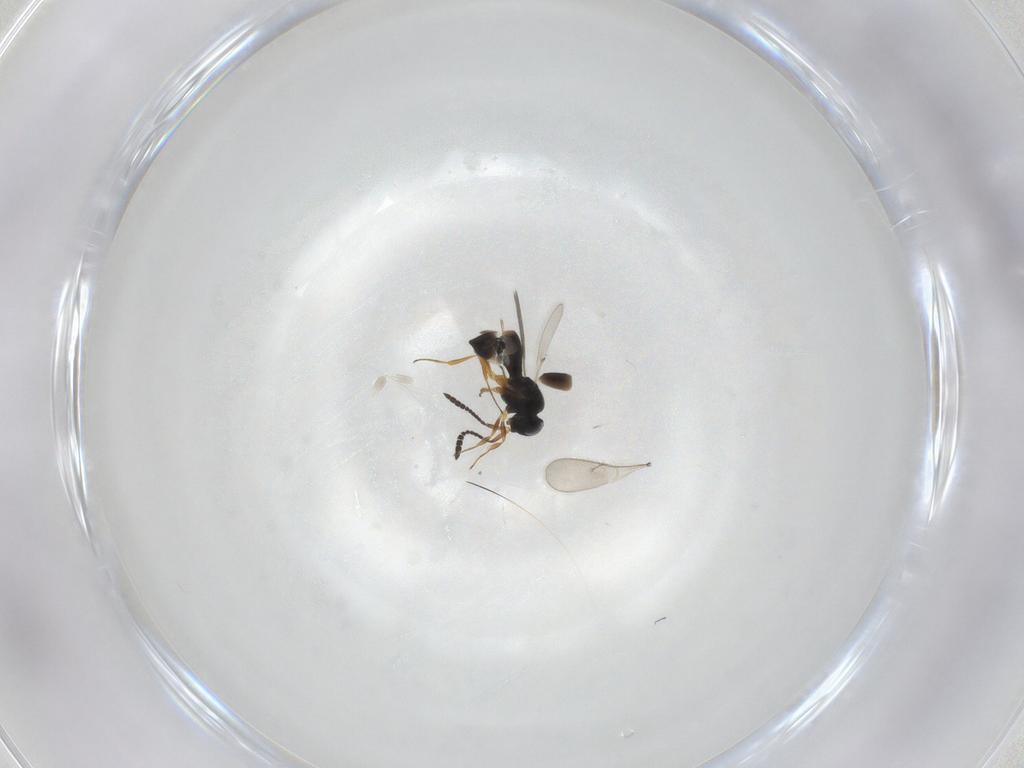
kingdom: Animalia
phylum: Arthropoda
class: Insecta
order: Hymenoptera
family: Scelionidae
